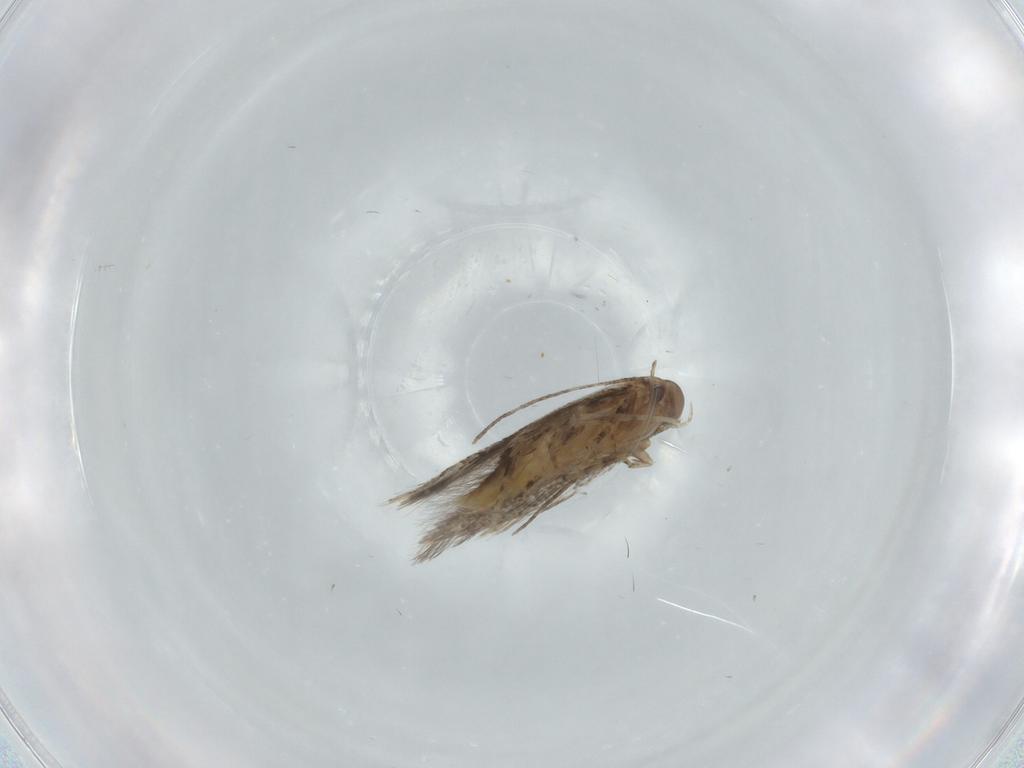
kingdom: Animalia
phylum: Arthropoda
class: Insecta
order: Lepidoptera
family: Elachistidae
